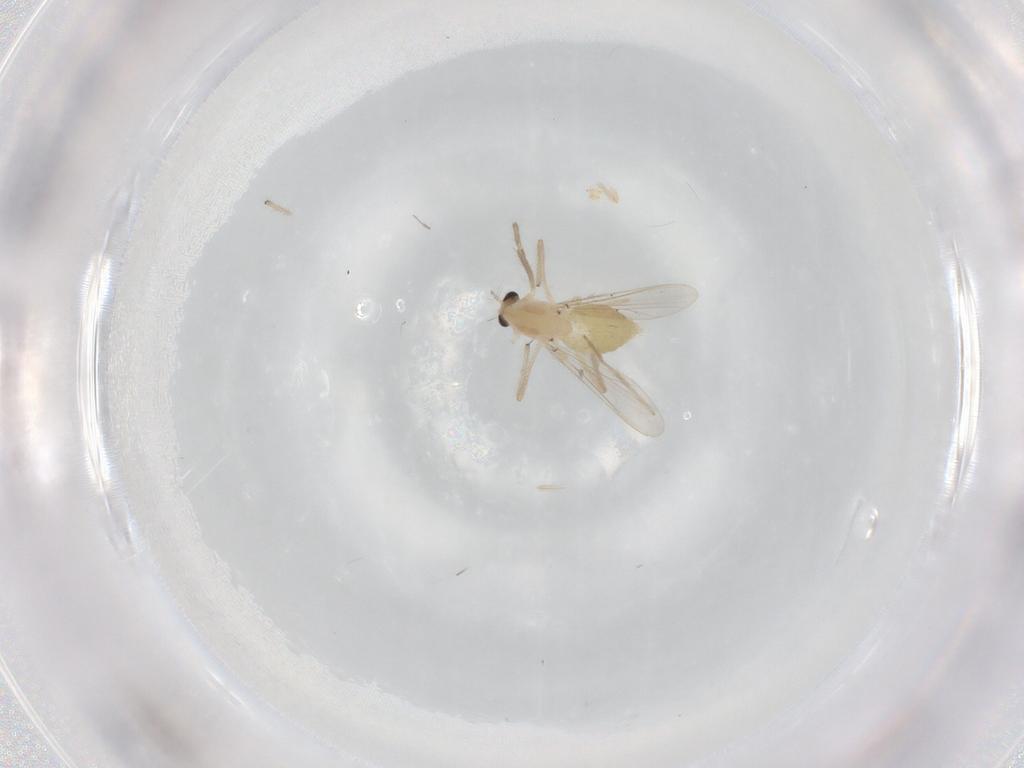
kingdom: Animalia
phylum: Arthropoda
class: Insecta
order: Diptera
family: Chironomidae
